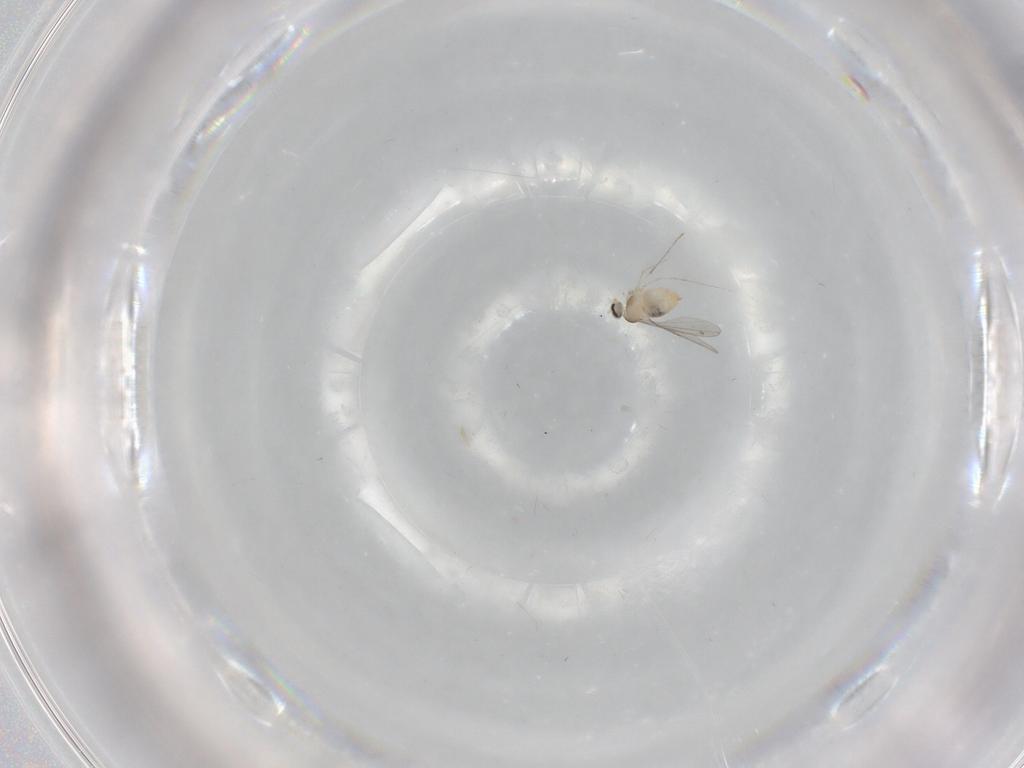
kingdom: Animalia
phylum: Arthropoda
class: Insecta
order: Diptera
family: Cecidomyiidae
